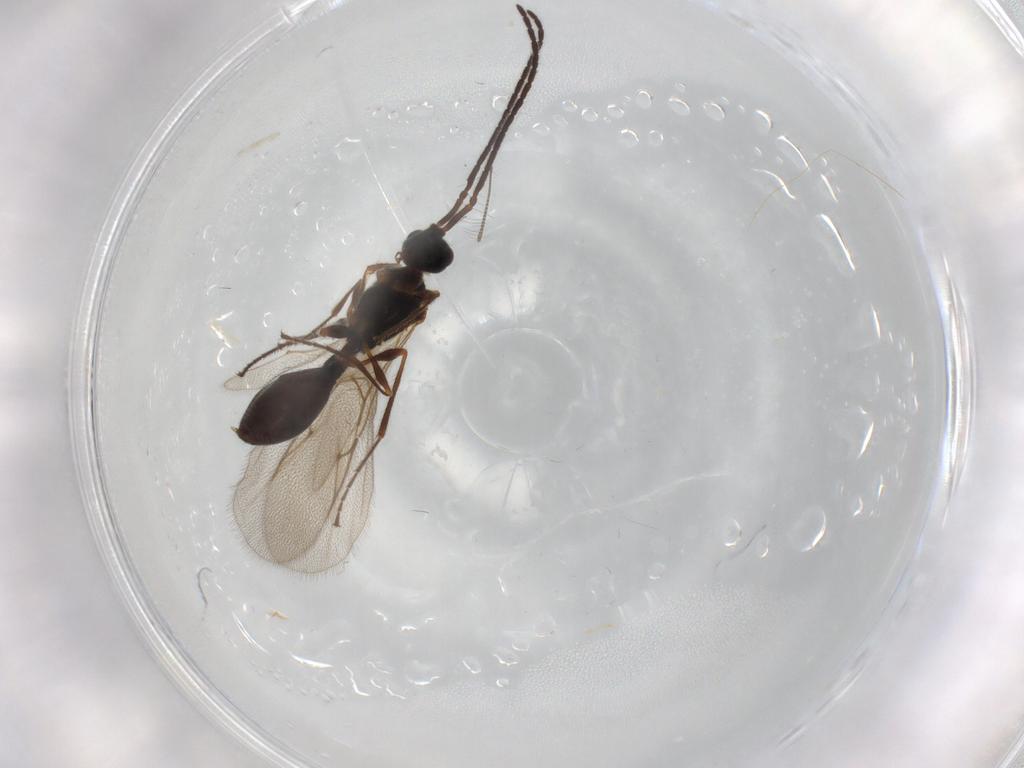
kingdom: Animalia
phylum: Arthropoda
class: Insecta
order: Hymenoptera
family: Diapriidae
